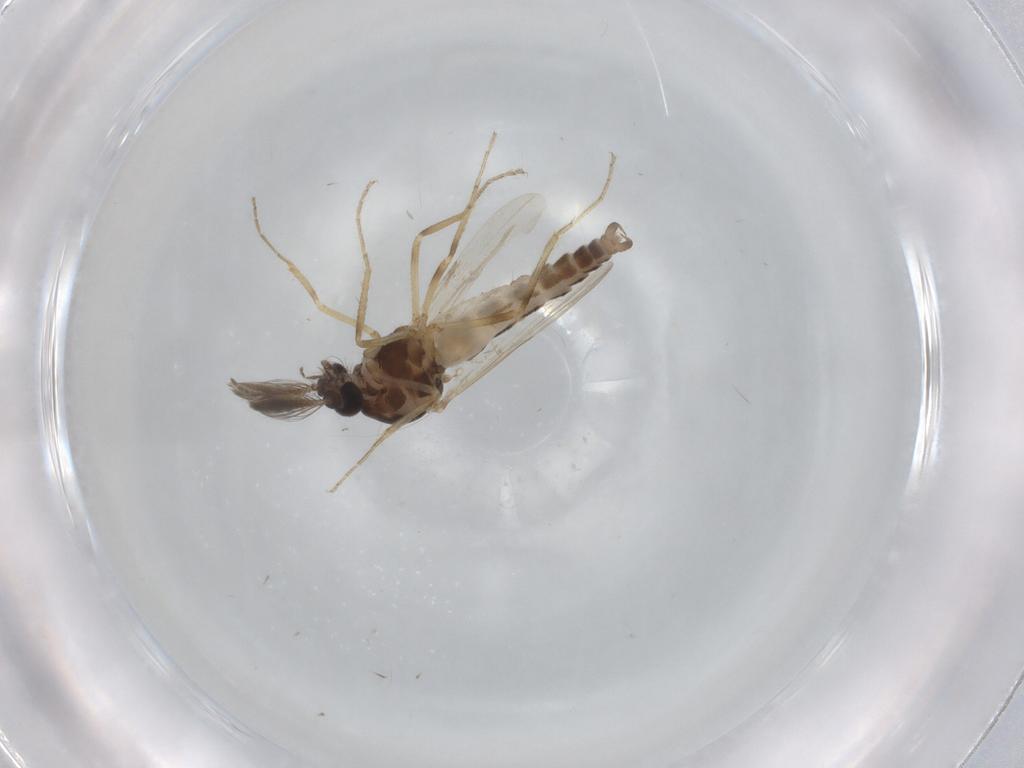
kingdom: Animalia
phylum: Arthropoda
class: Insecta
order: Diptera
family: Ceratopogonidae
